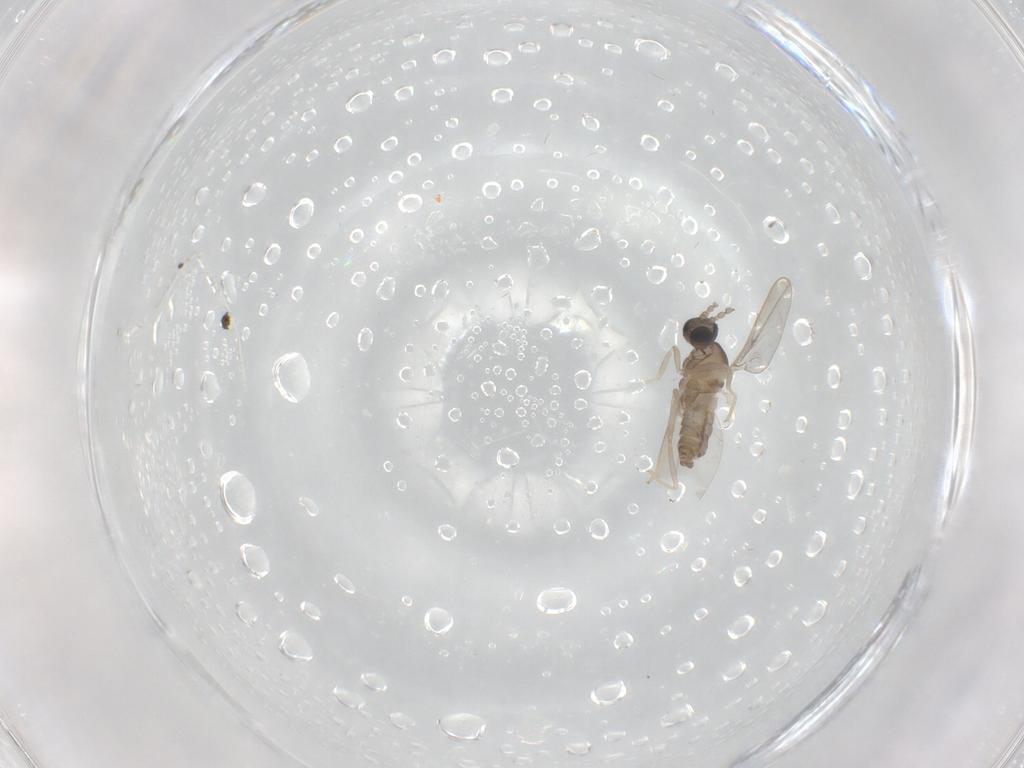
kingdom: Animalia
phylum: Arthropoda
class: Insecta
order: Diptera
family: Cecidomyiidae
